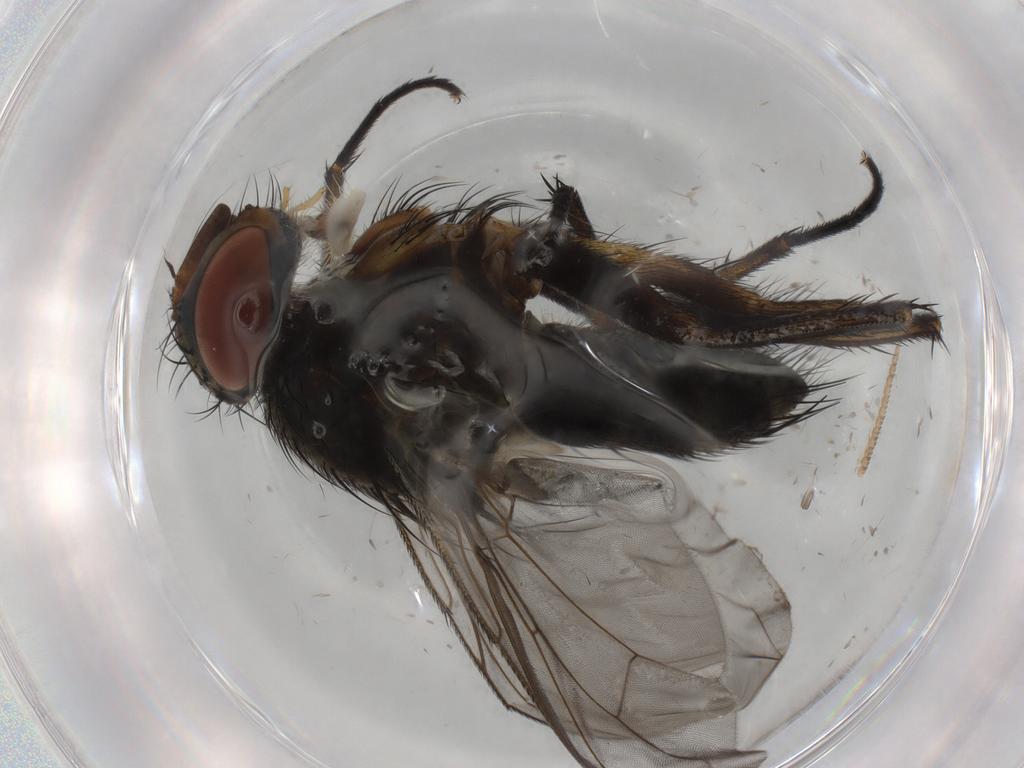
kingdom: Animalia
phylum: Arthropoda
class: Insecta
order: Diptera
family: Tachinidae
